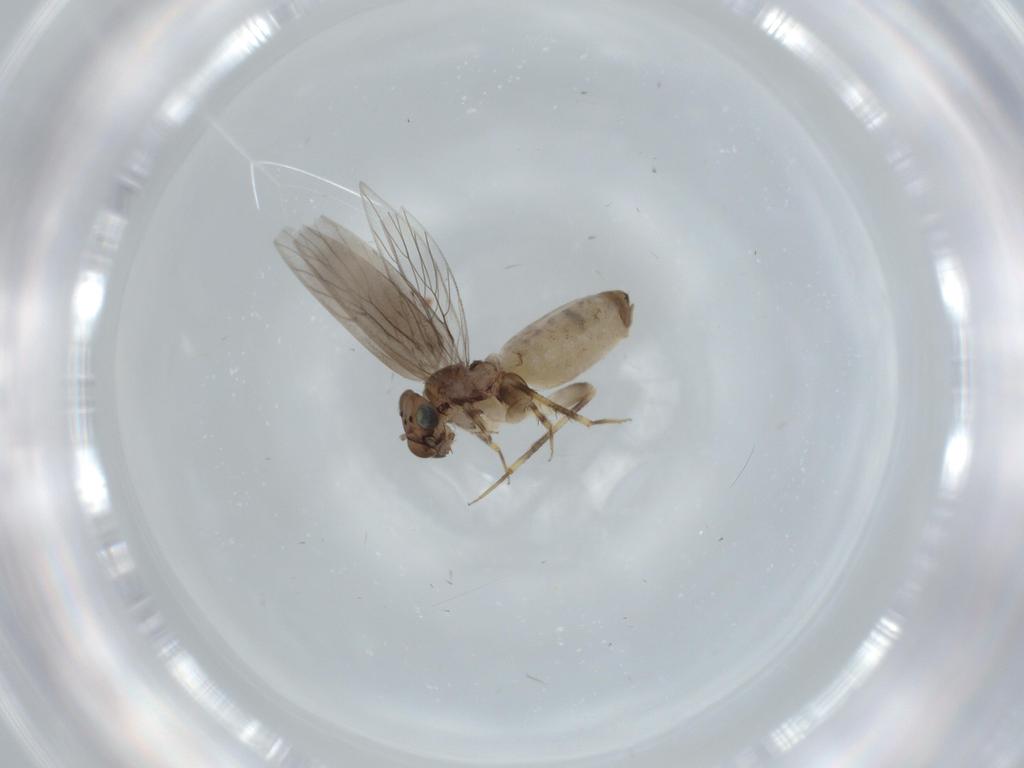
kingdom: Animalia
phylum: Arthropoda
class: Insecta
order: Psocodea
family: Lepidopsocidae
